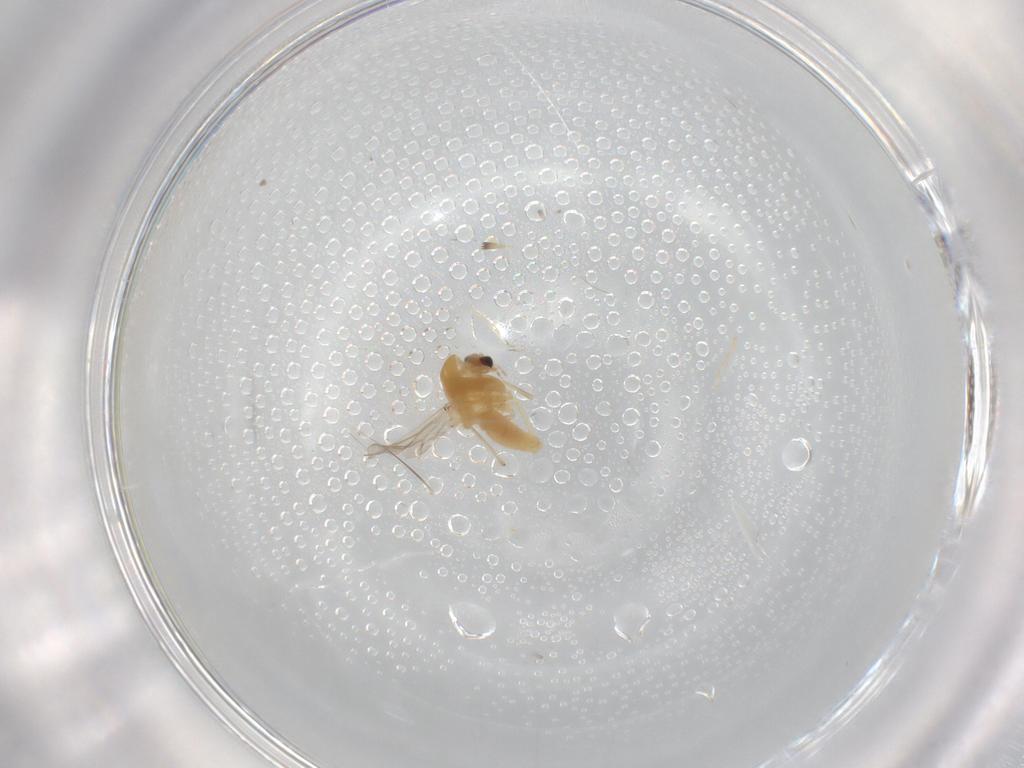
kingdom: Animalia
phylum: Arthropoda
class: Insecta
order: Diptera
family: Chironomidae
